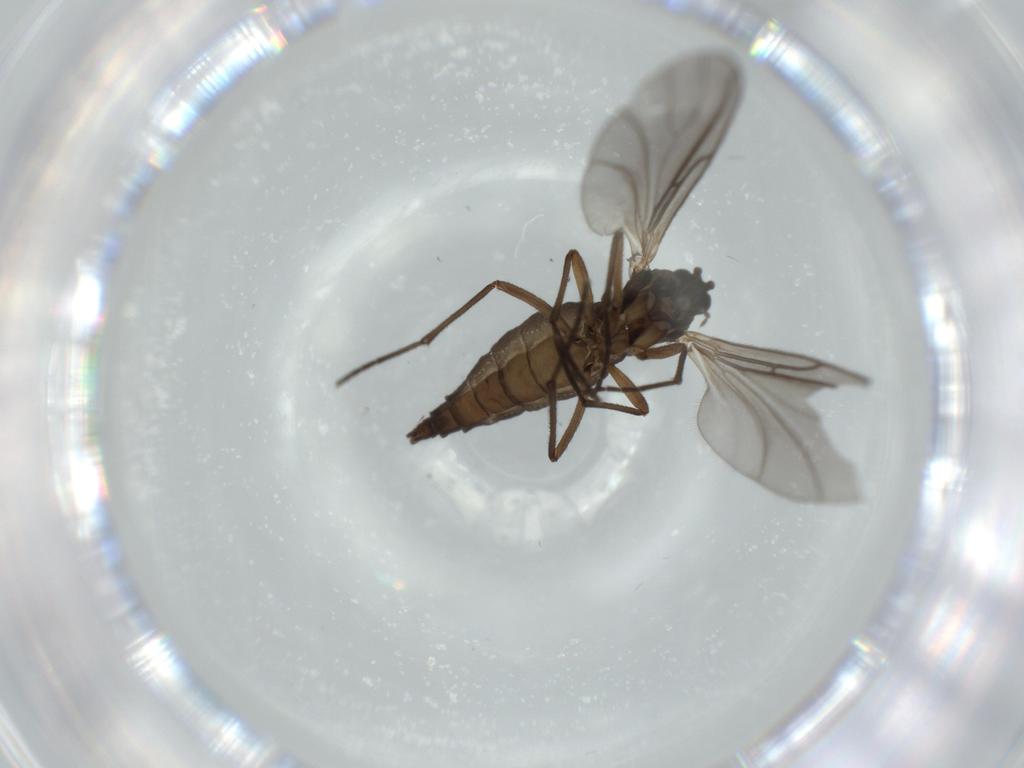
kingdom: Animalia
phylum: Arthropoda
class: Insecta
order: Diptera
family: Sciaridae
